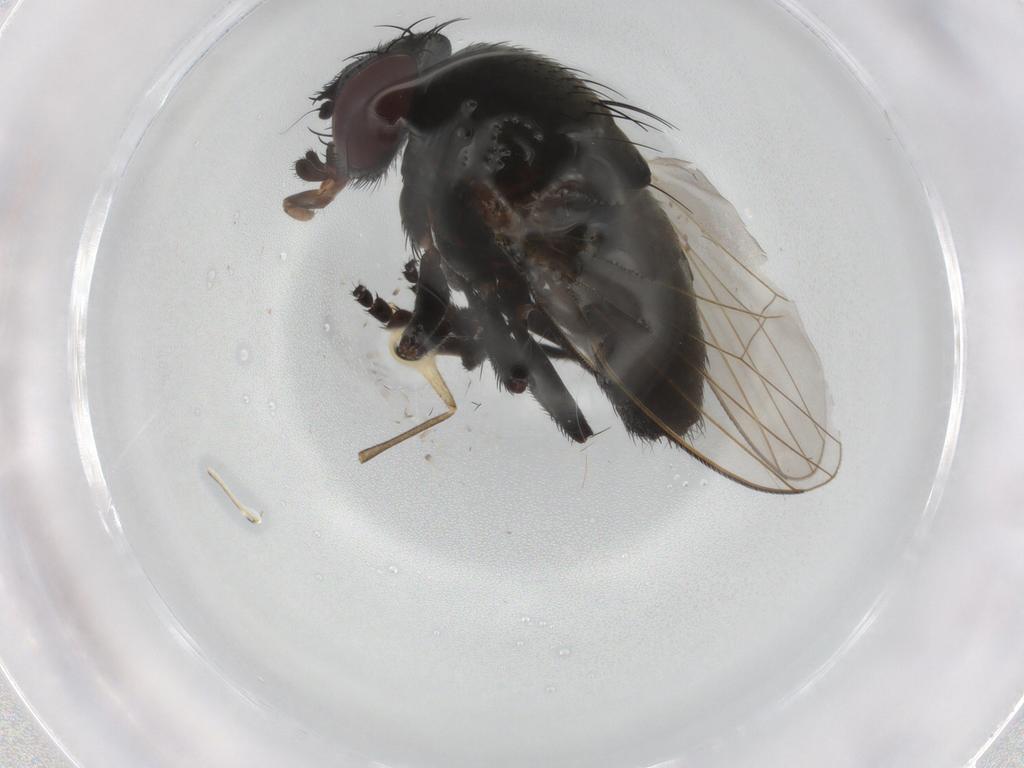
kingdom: Animalia
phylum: Arthropoda
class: Insecta
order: Diptera
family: Milichiidae
